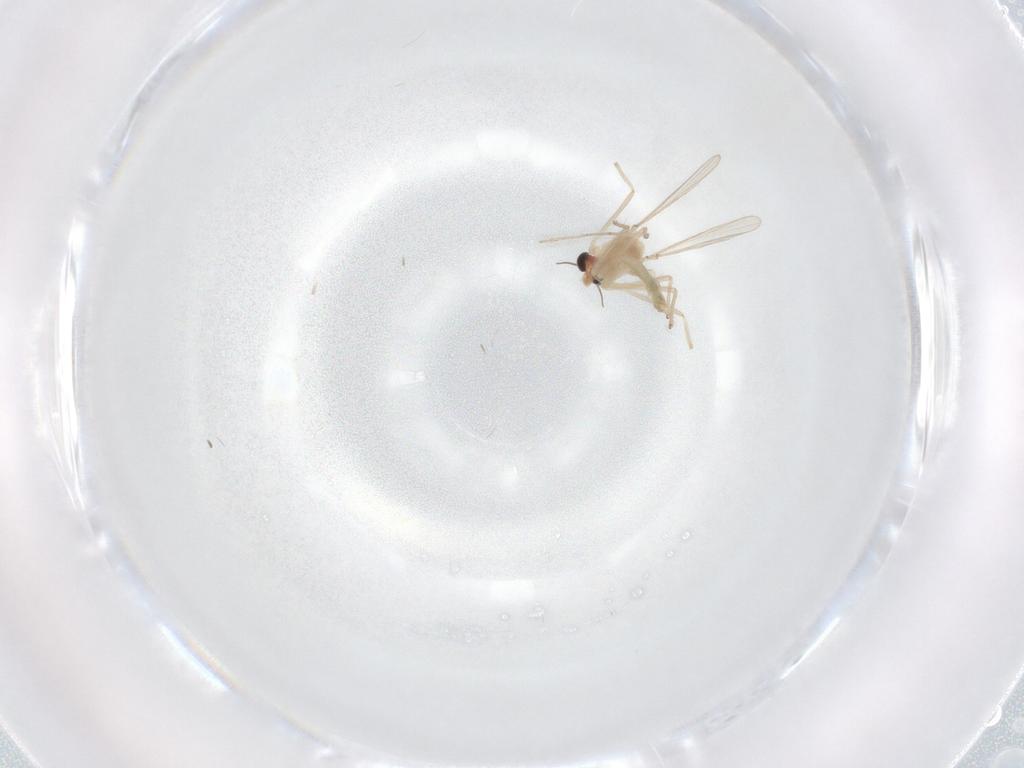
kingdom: Animalia
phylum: Arthropoda
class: Insecta
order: Diptera
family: Chironomidae
